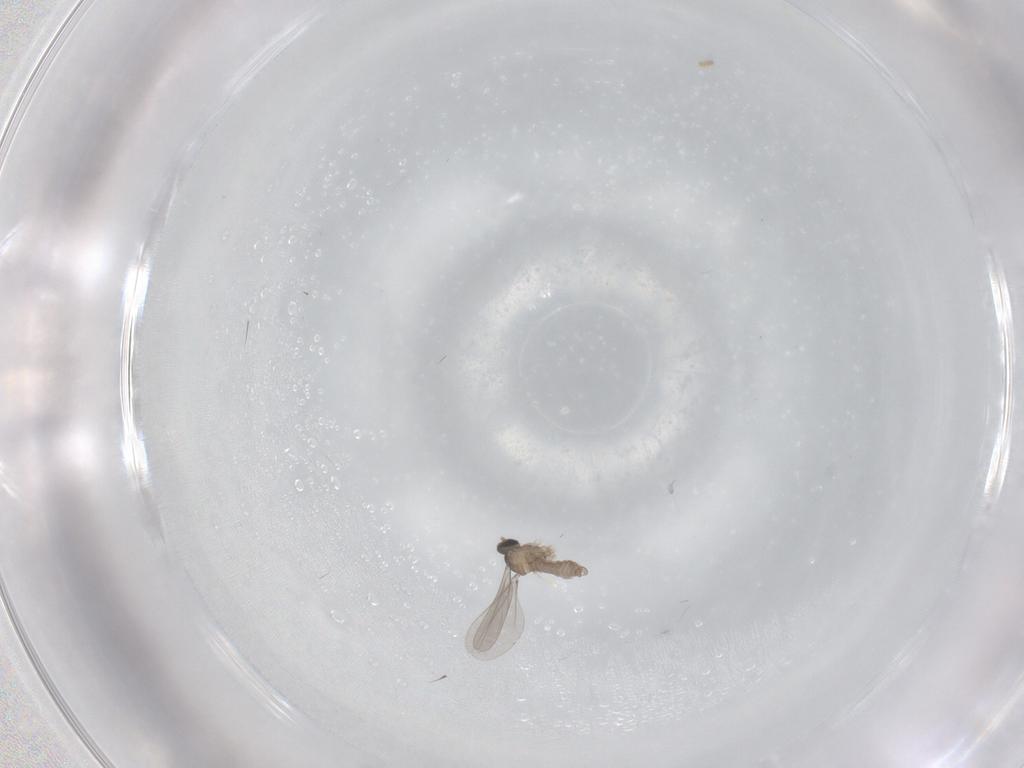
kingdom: Animalia
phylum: Arthropoda
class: Insecta
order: Diptera
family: Cecidomyiidae
